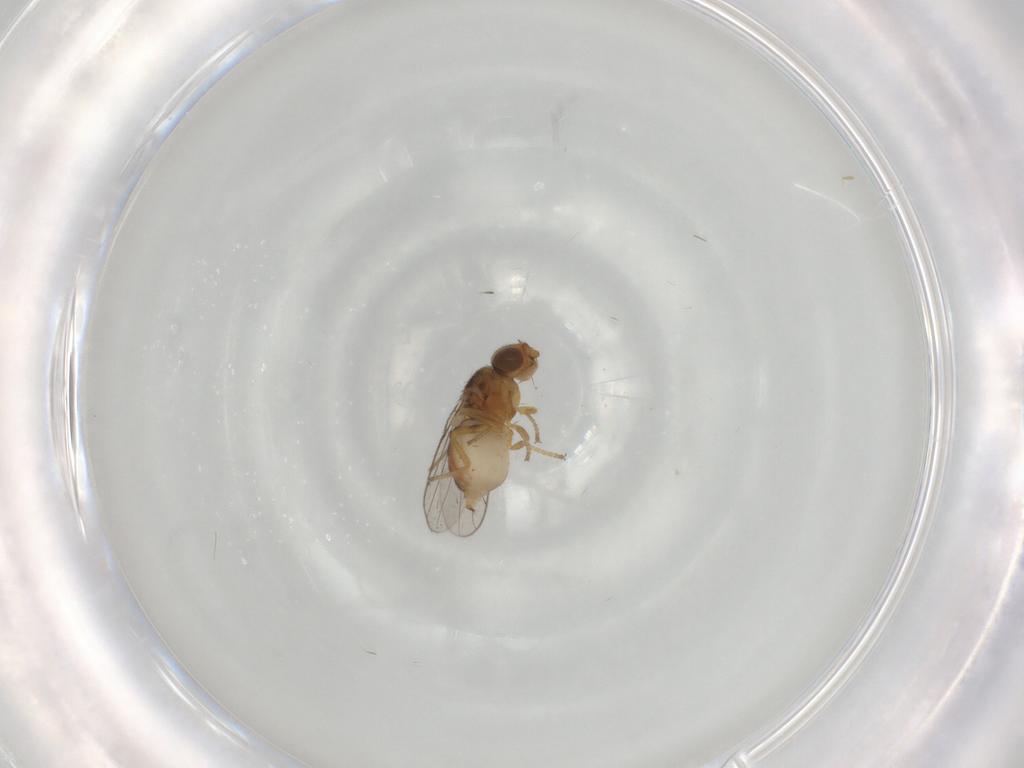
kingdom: Animalia
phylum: Arthropoda
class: Insecta
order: Diptera
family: Chloropidae
